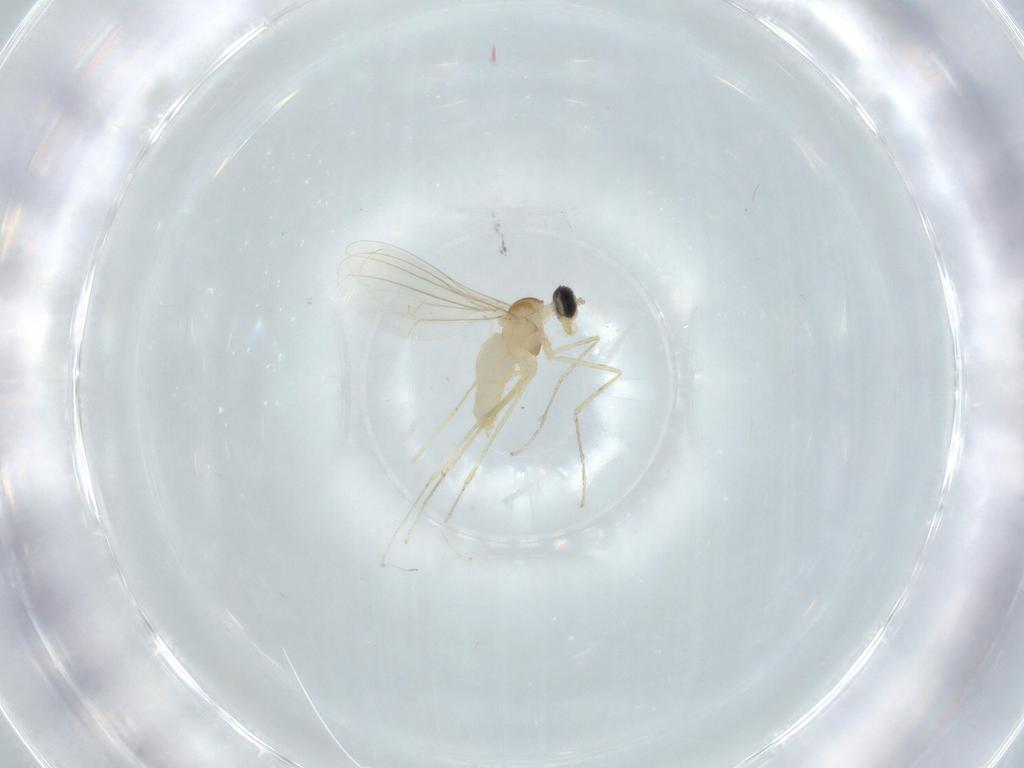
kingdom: Animalia
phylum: Arthropoda
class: Insecta
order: Diptera
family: Cecidomyiidae
